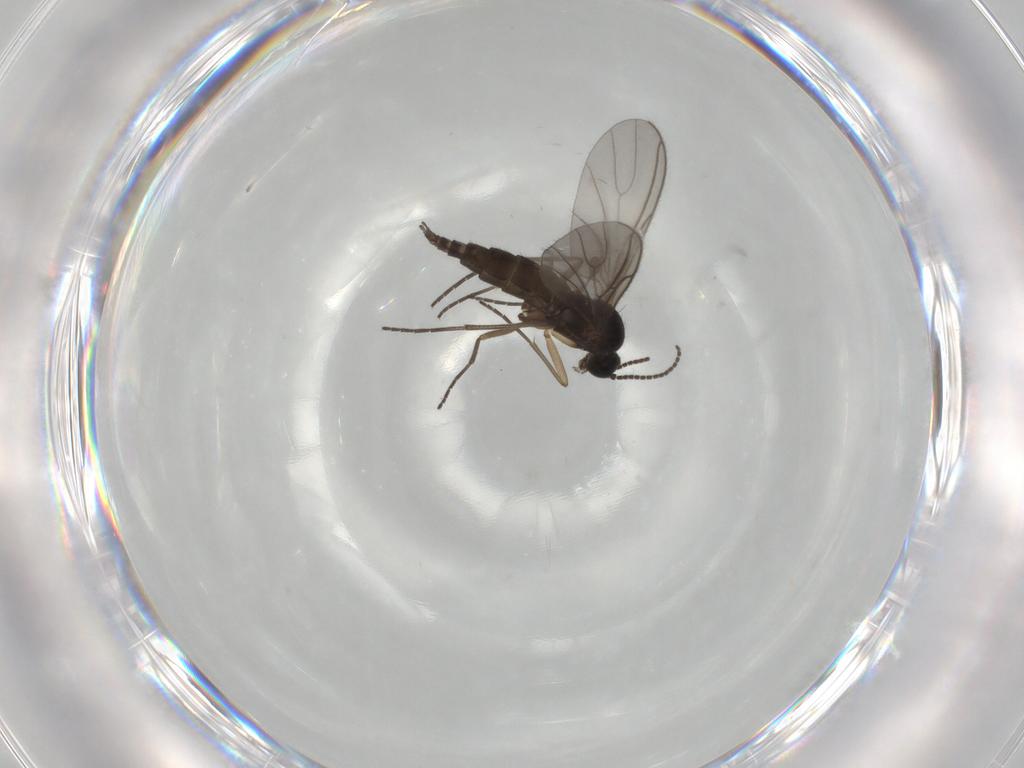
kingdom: Animalia
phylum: Arthropoda
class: Insecta
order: Diptera
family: Sciaridae
